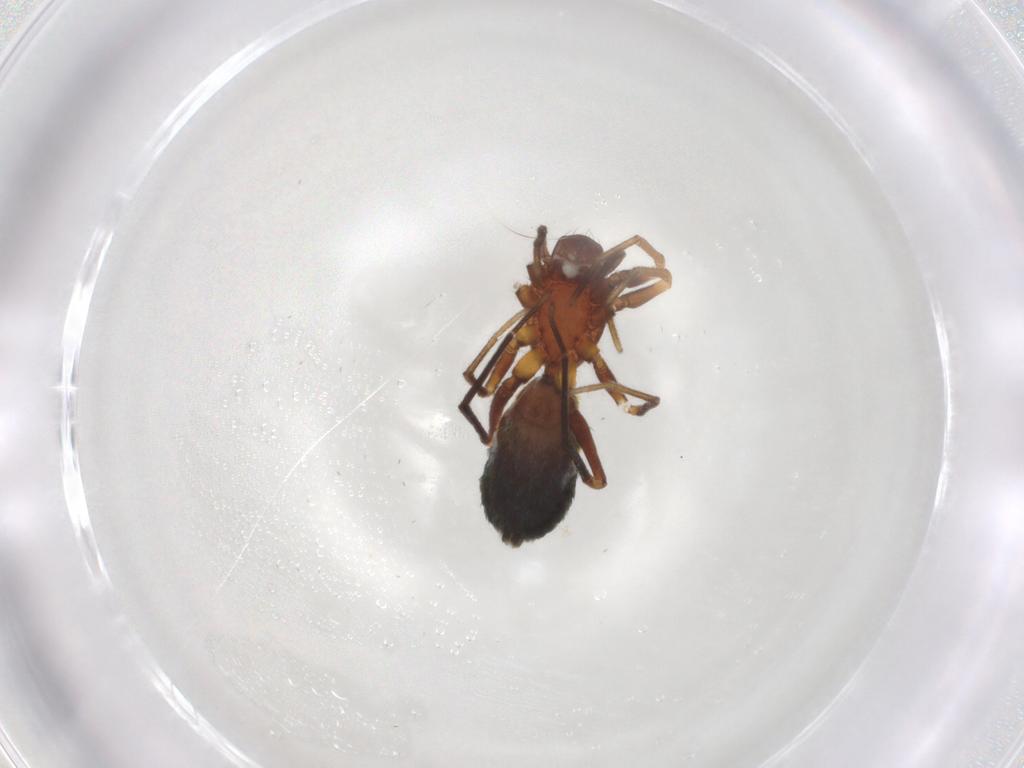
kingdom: Animalia
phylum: Arthropoda
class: Arachnida
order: Araneae
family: Gnaphosidae
